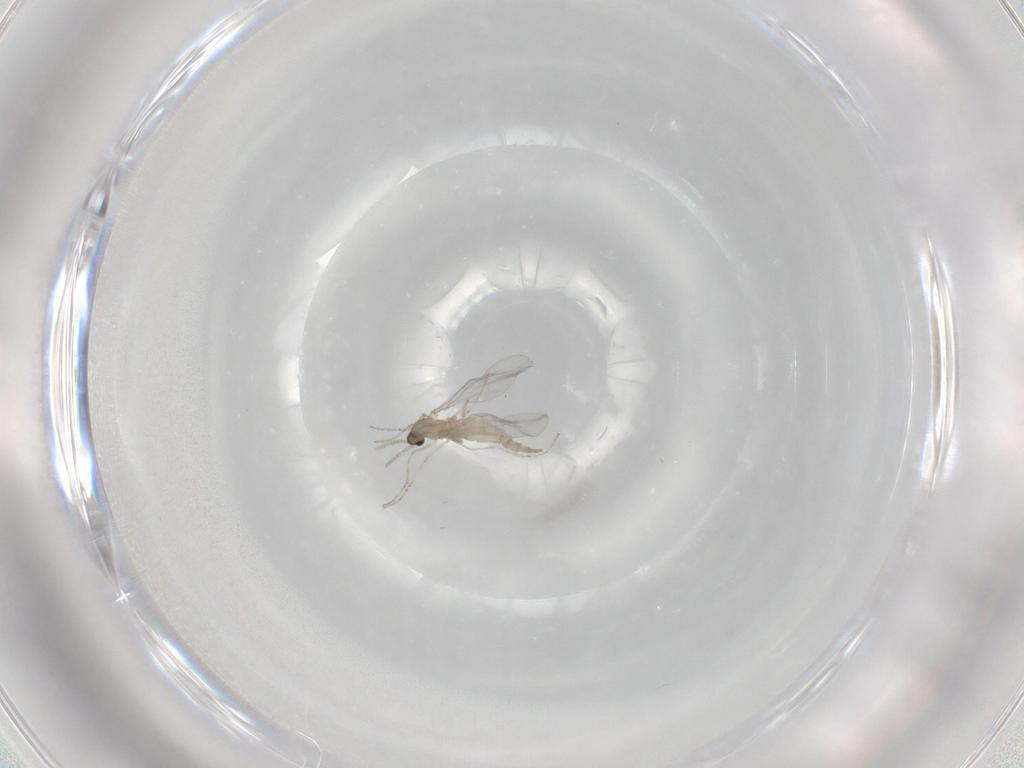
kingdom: Animalia
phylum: Arthropoda
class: Insecta
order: Diptera
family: Cecidomyiidae
